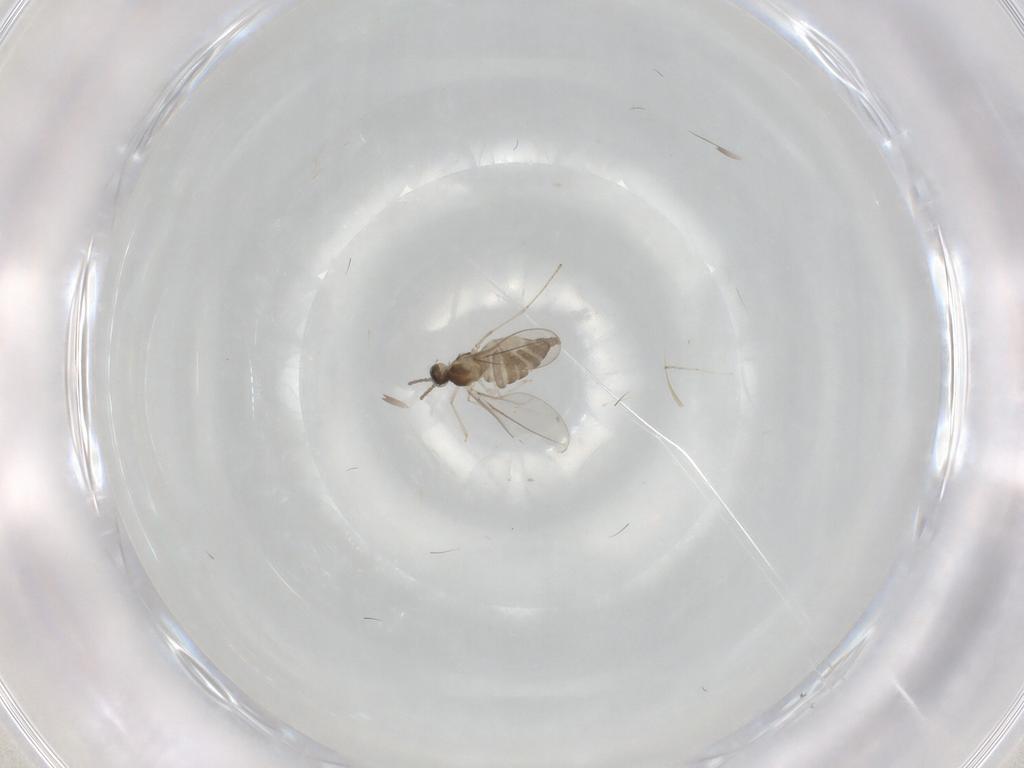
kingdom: Animalia
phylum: Arthropoda
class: Insecta
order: Diptera
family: Cecidomyiidae
